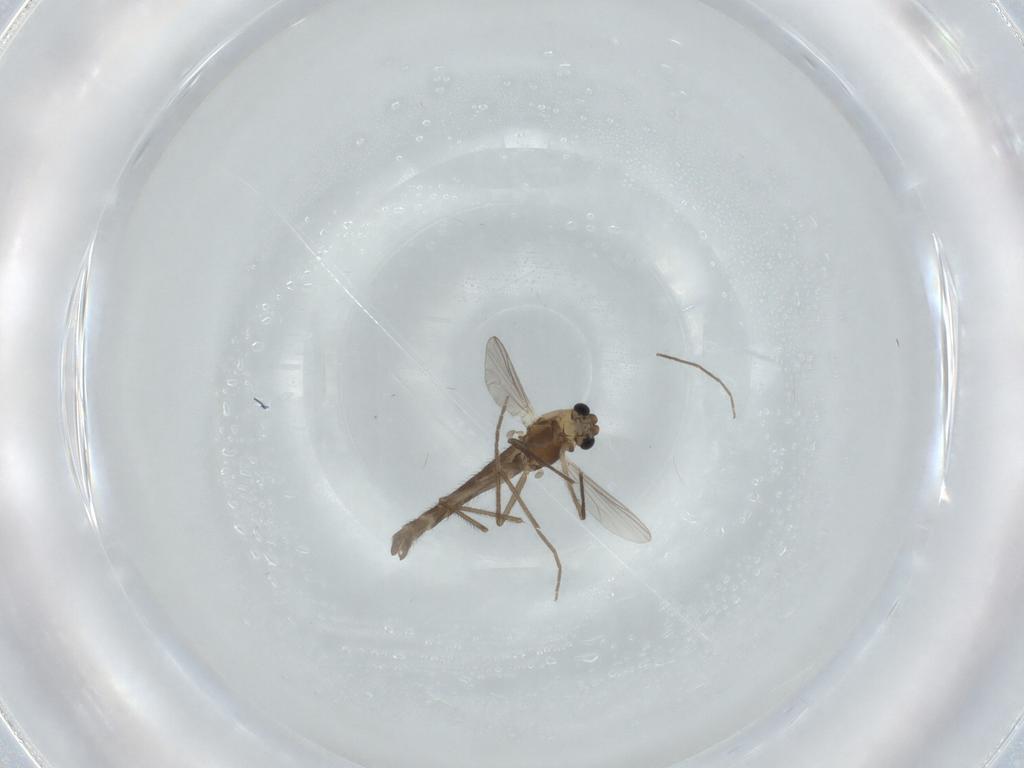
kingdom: Animalia
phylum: Arthropoda
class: Insecta
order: Diptera
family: Chironomidae
